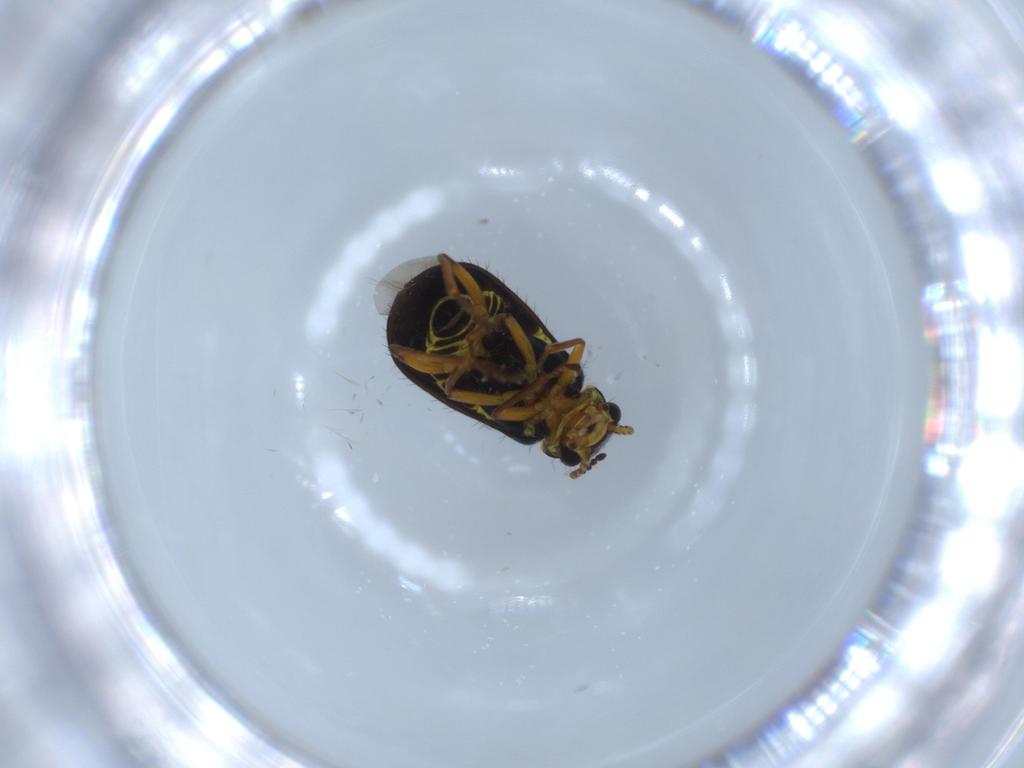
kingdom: Animalia
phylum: Arthropoda
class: Insecta
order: Coleoptera
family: Melyridae
